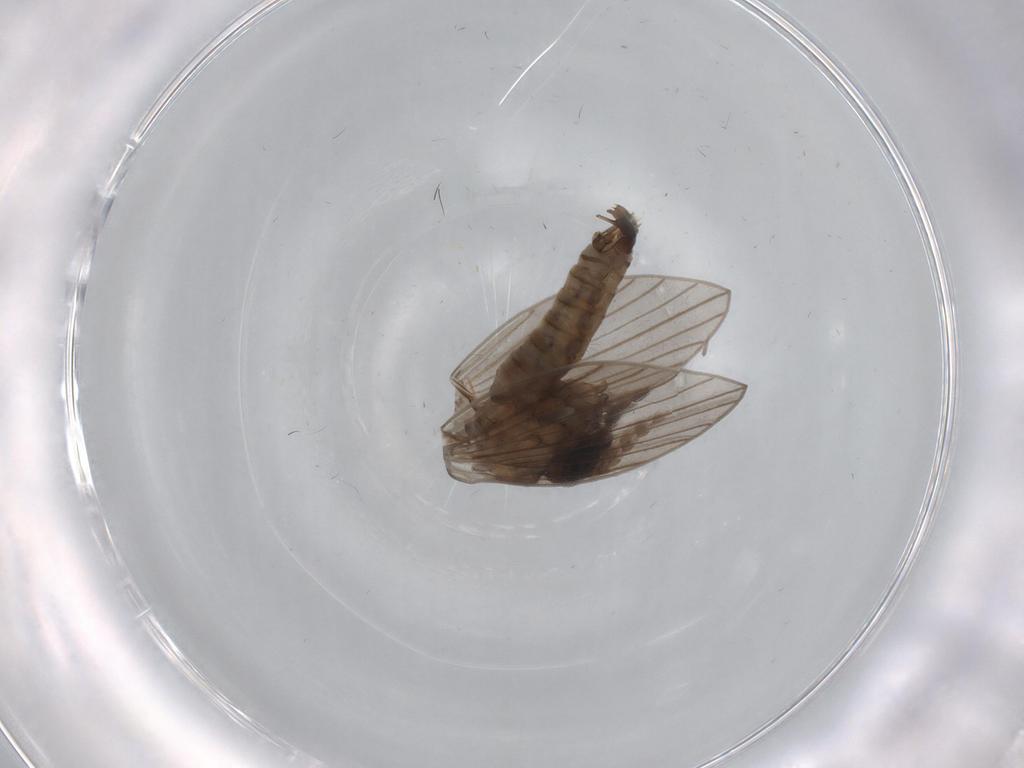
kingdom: Animalia
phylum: Arthropoda
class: Insecta
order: Diptera
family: Psychodidae
